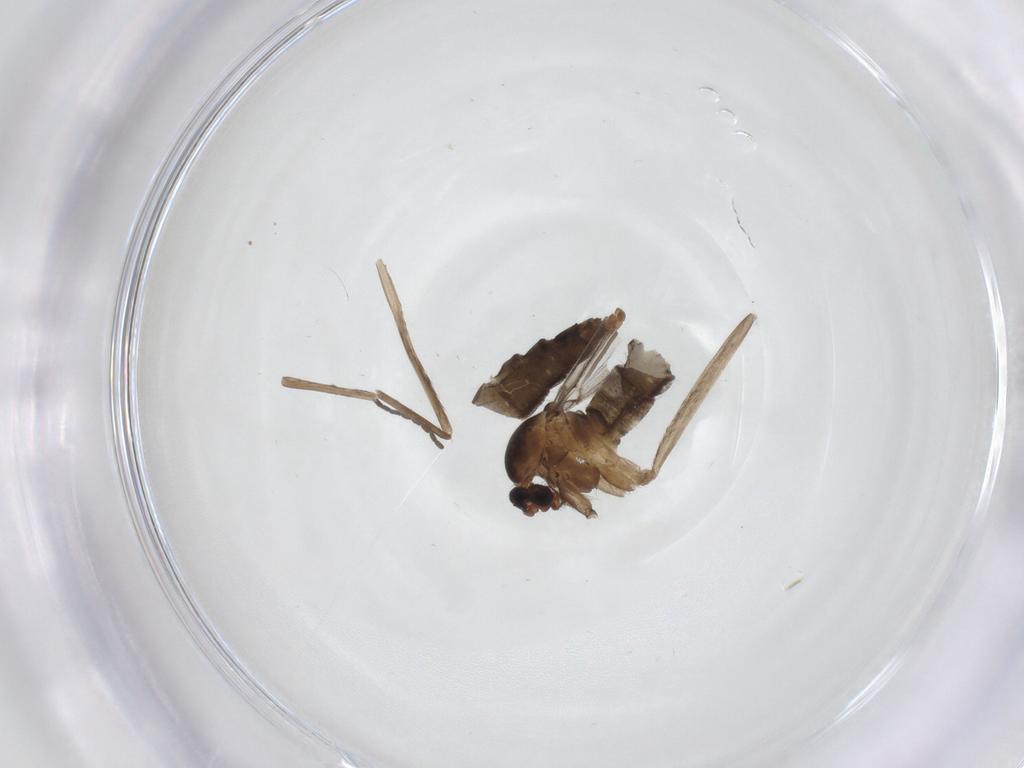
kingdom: Animalia
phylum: Arthropoda
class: Insecta
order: Diptera
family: Cecidomyiidae
